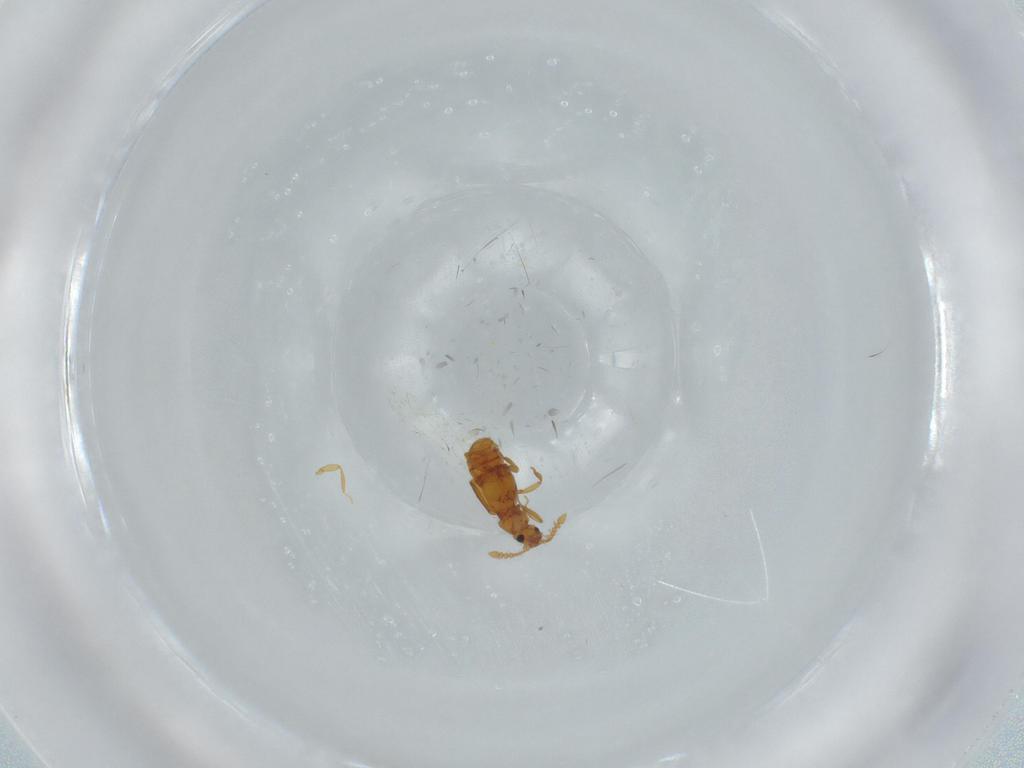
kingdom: Animalia
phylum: Arthropoda
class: Insecta
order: Coleoptera
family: Staphylinidae
